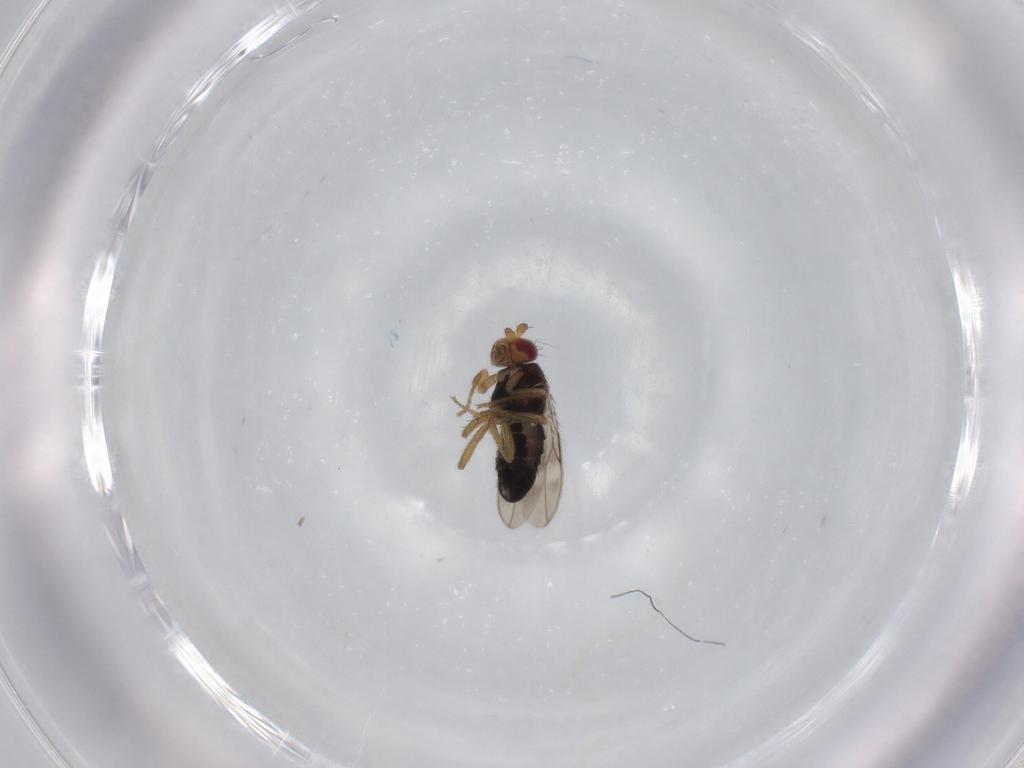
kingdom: Animalia
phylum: Arthropoda
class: Insecta
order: Diptera
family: Sphaeroceridae
